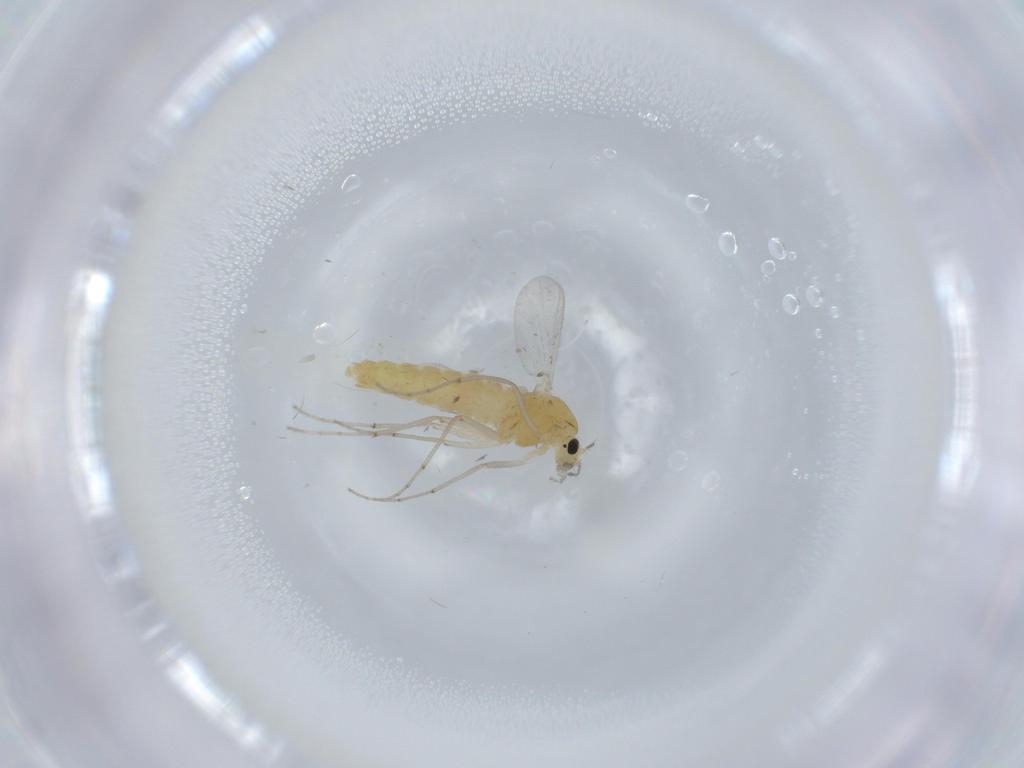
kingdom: Animalia
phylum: Arthropoda
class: Insecta
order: Diptera
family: Chironomidae
